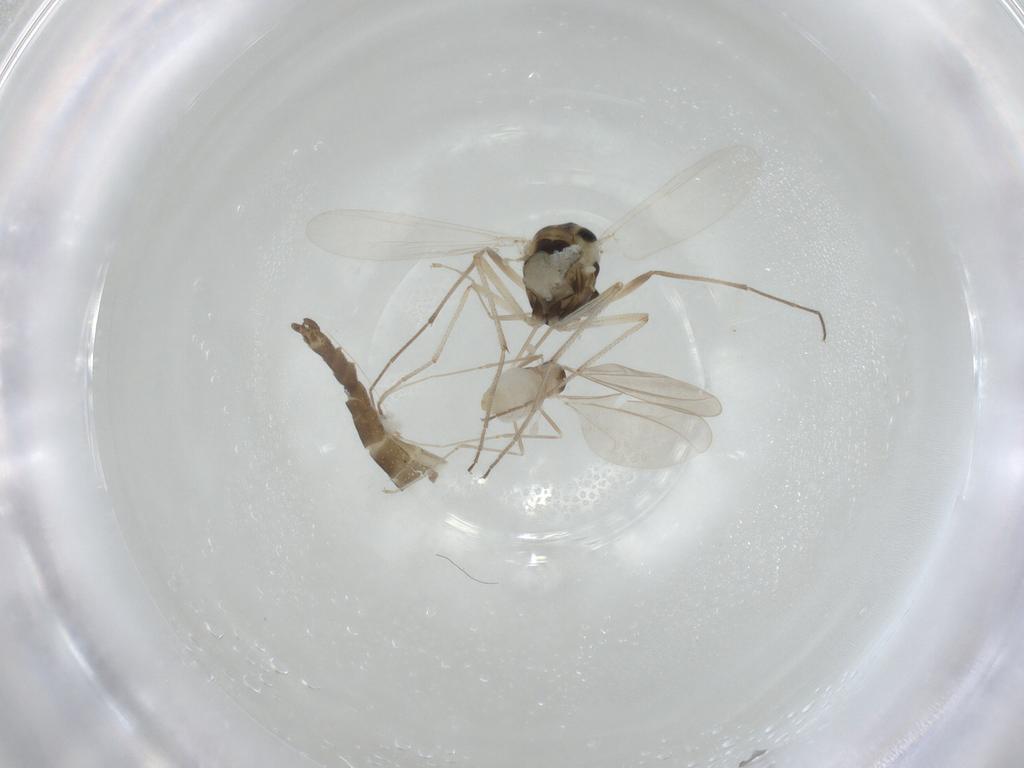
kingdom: Animalia
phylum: Arthropoda
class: Insecta
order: Diptera
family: Chironomidae
